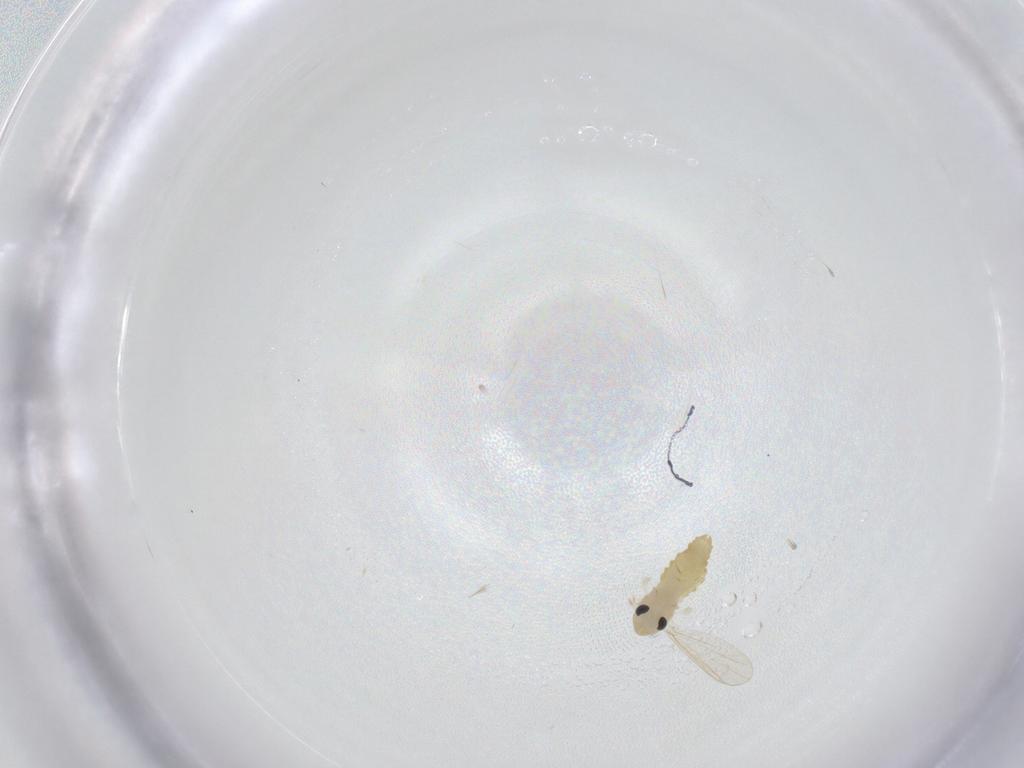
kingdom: Animalia
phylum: Arthropoda
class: Insecta
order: Diptera
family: Chironomidae
